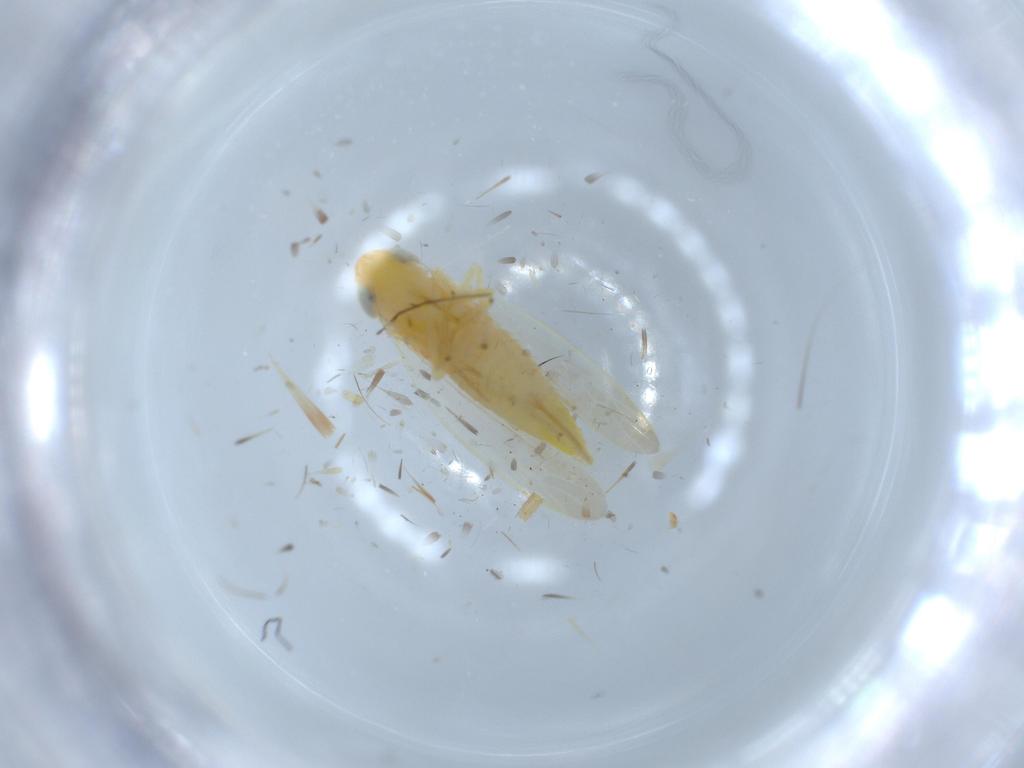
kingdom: Animalia
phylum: Arthropoda
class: Insecta
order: Hemiptera
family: Cicadellidae
